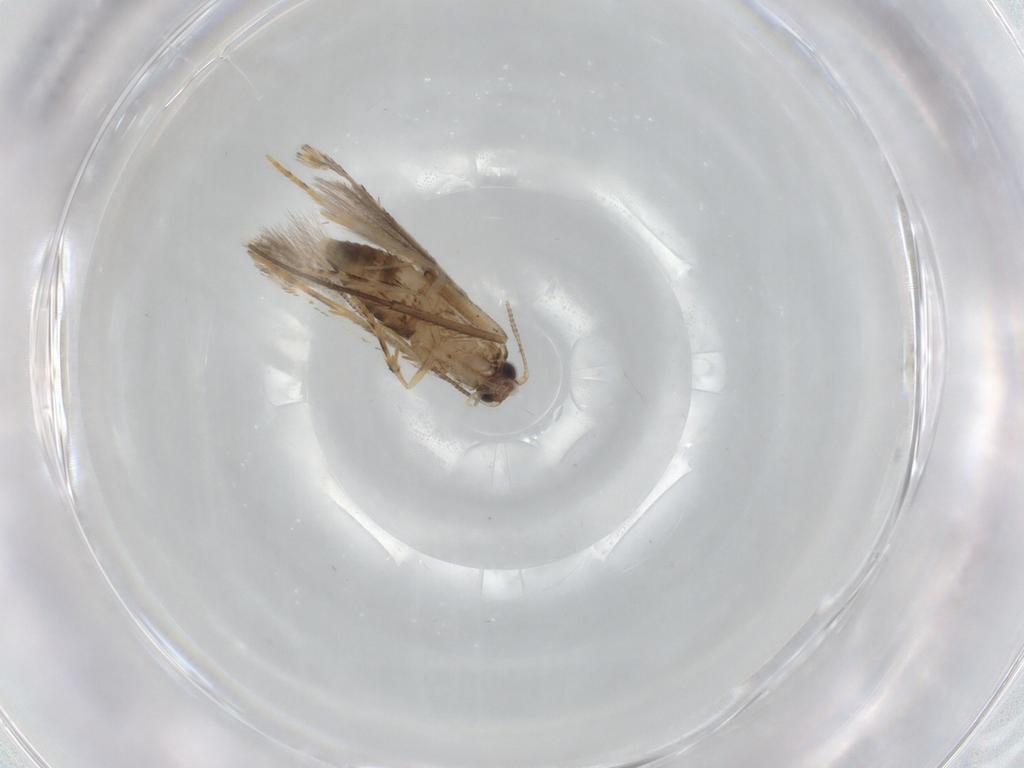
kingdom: Animalia
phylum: Arthropoda
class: Insecta
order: Lepidoptera
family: Tineidae
